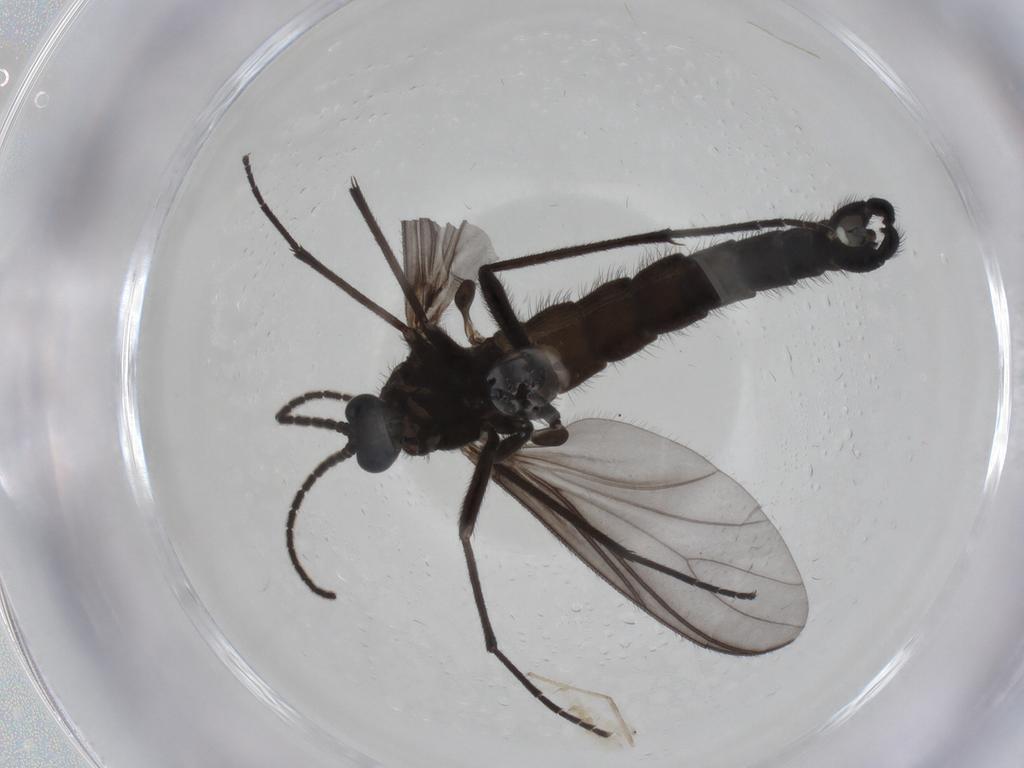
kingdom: Animalia
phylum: Arthropoda
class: Insecta
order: Diptera
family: Chironomidae
